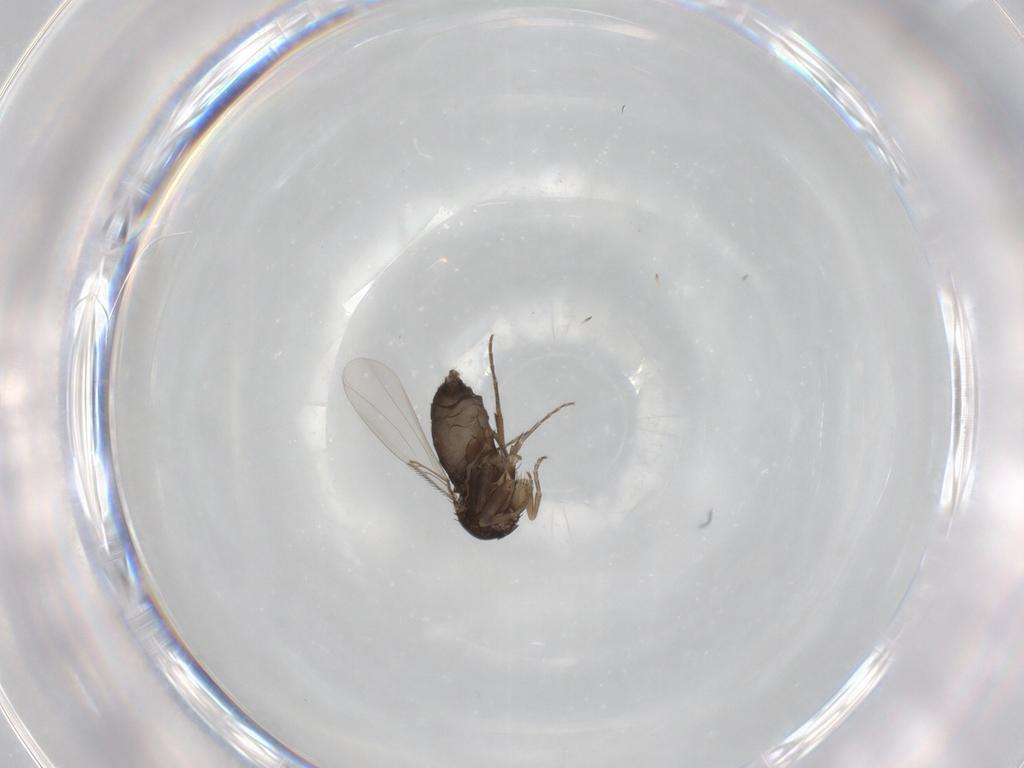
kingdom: Animalia
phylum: Arthropoda
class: Insecta
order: Diptera
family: Phoridae
